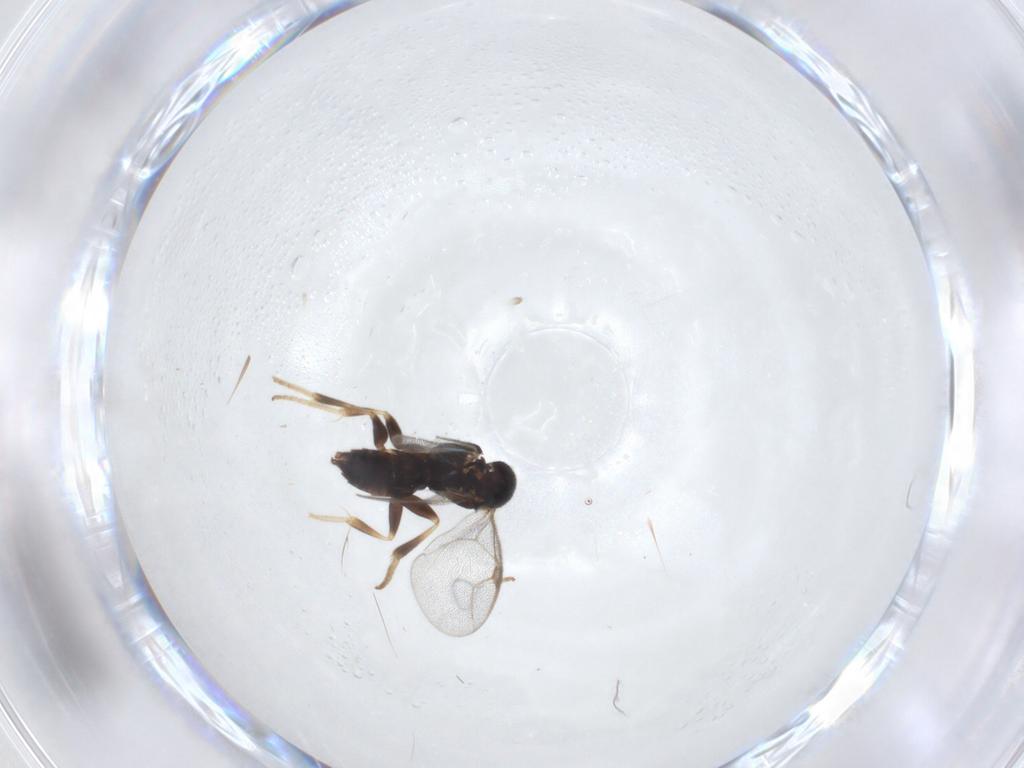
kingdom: Animalia
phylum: Arthropoda
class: Insecta
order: Hymenoptera
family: Dryinidae
